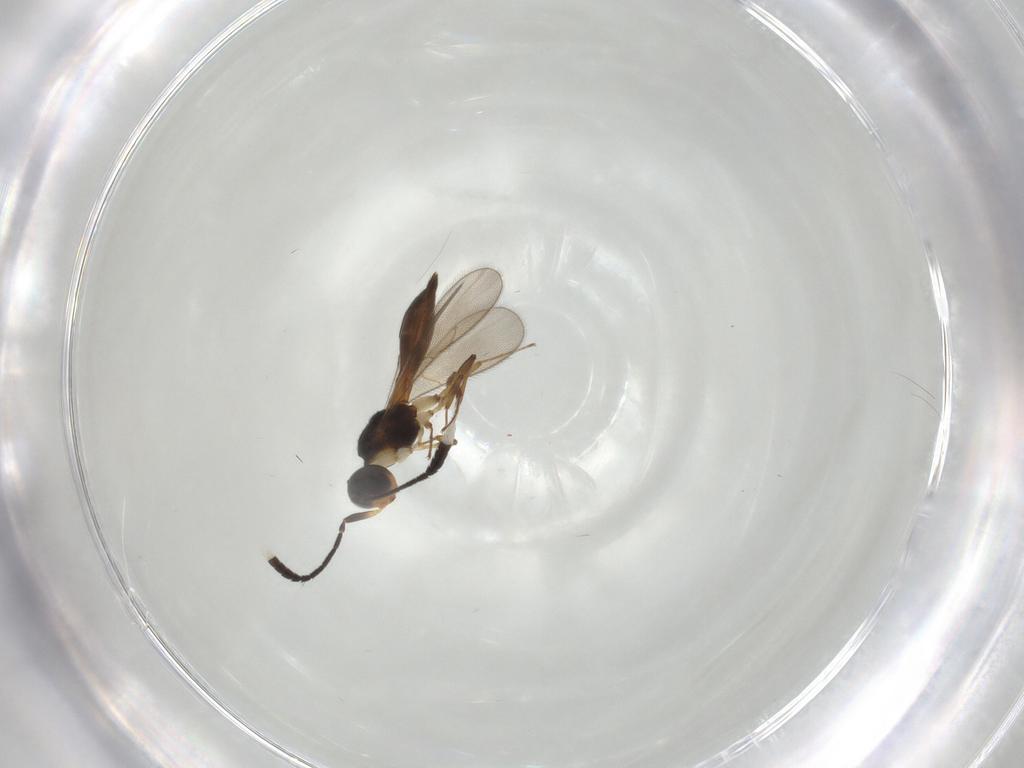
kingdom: Animalia
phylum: Arthropoda
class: Insecta
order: Hymenoptera
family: Scelionidae
